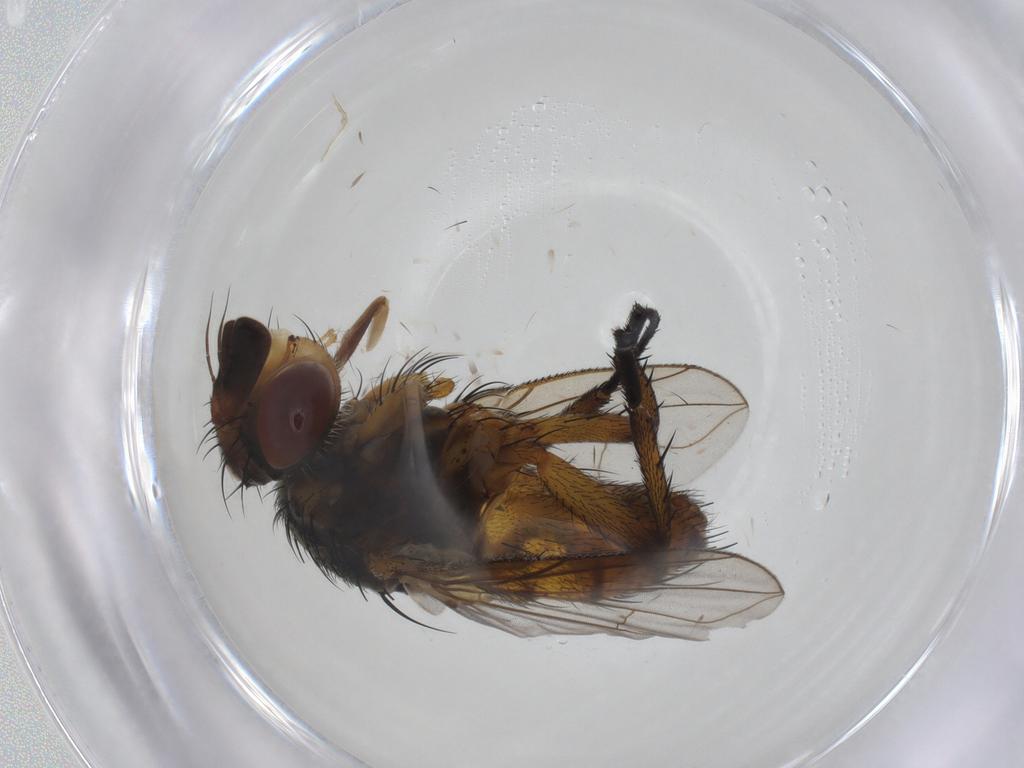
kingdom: Animalia
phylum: Arthropoda
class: Insecta
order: Diptera
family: Tachinidae
